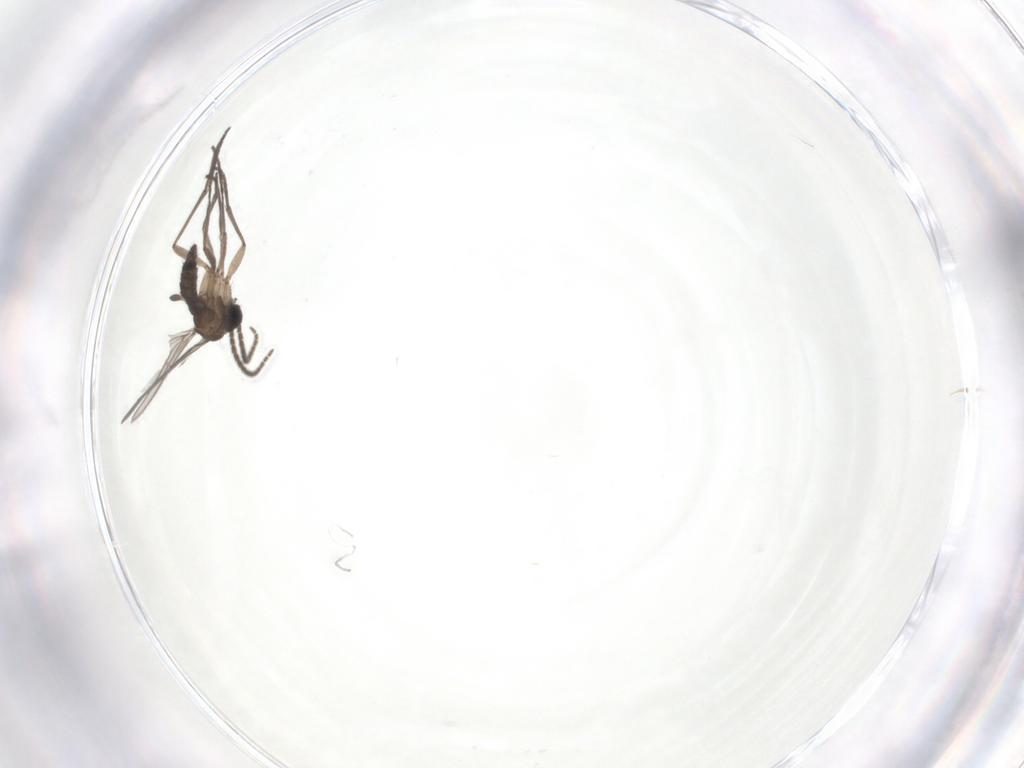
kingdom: Animalia
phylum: Arthropoda
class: Insecta
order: Diptera
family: Sciaridae
